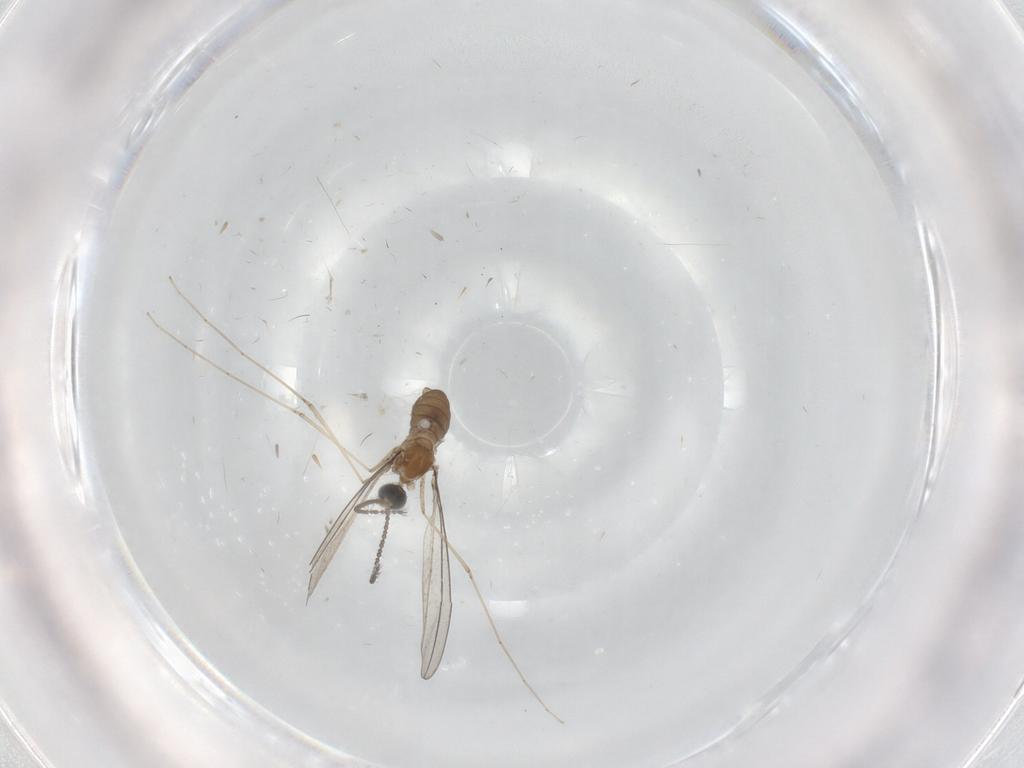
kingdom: Animalia
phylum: Arthropoda
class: Insecta
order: Diptera
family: Cecidomyiidae
